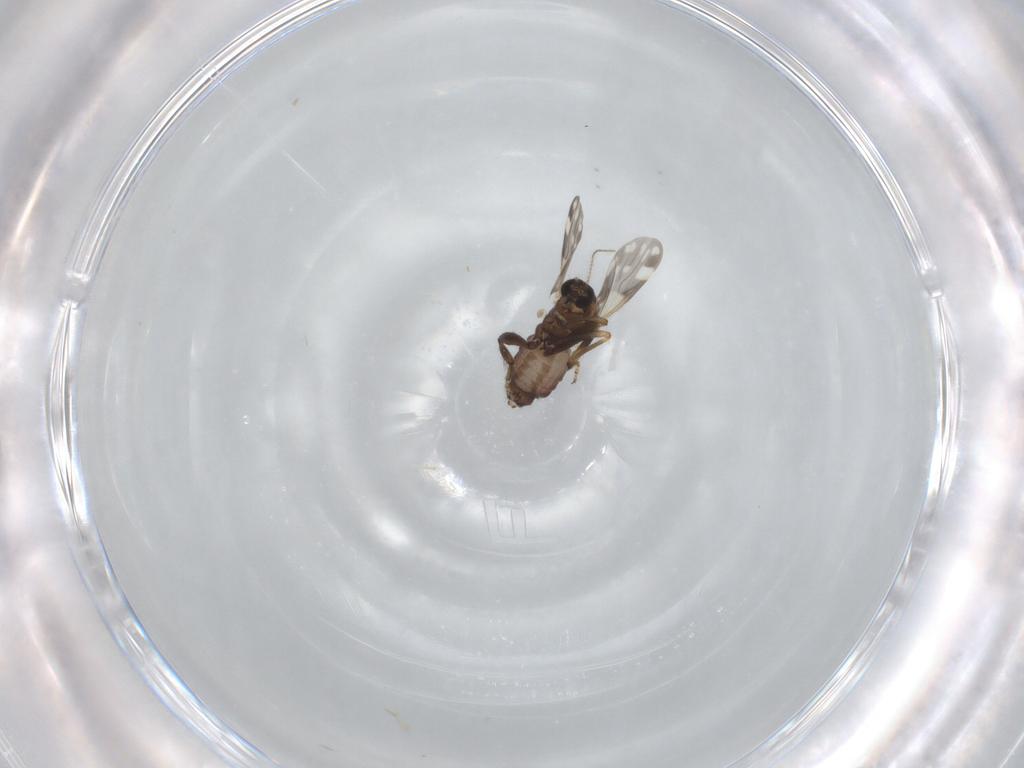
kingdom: Animalia
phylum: Arthropoda
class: Insecta
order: Diptera
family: Ceratopogonidae
